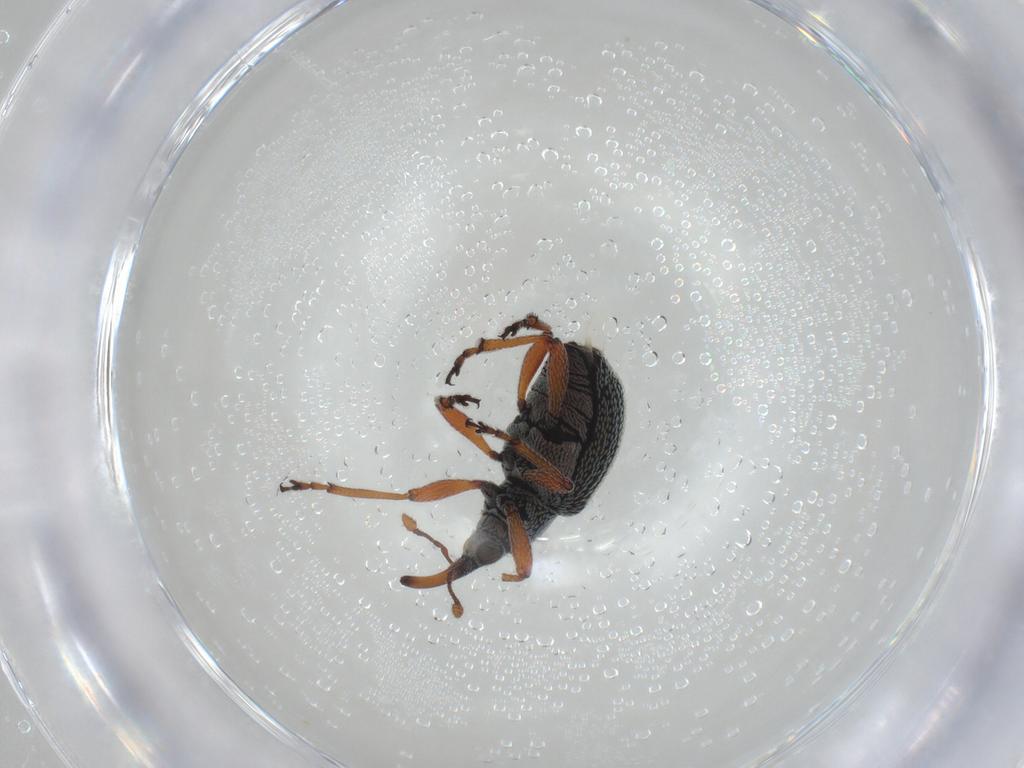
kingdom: Animalia
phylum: Arthropoda
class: Insecta
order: Coleoptera
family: Brentidae
